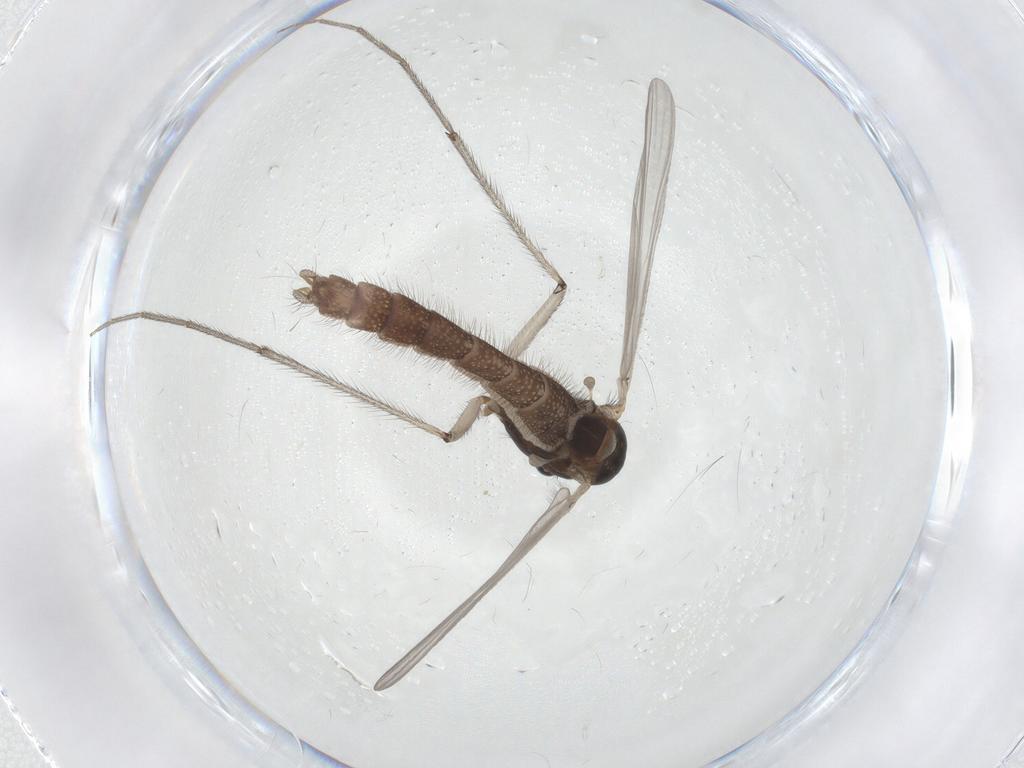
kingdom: Animalia
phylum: Arthropoda
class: Insecta
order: Diptera
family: Chironomidae
